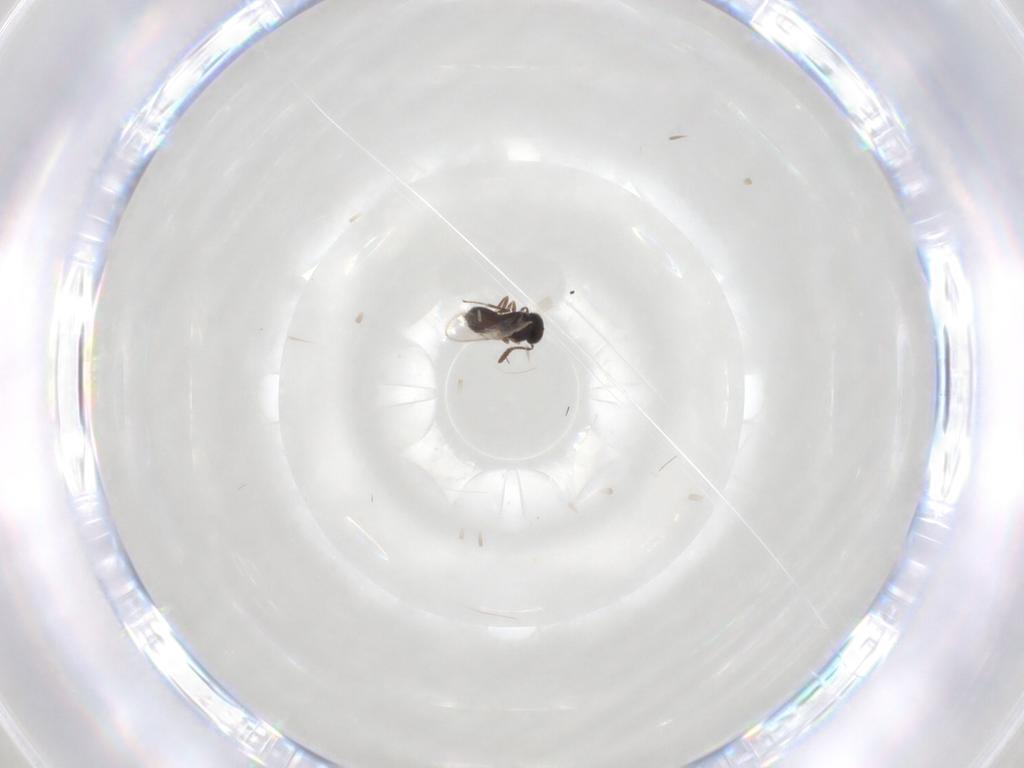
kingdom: Animalia
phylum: Arthropoda
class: Insecta
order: Hymenoptera
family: Scelionidae
